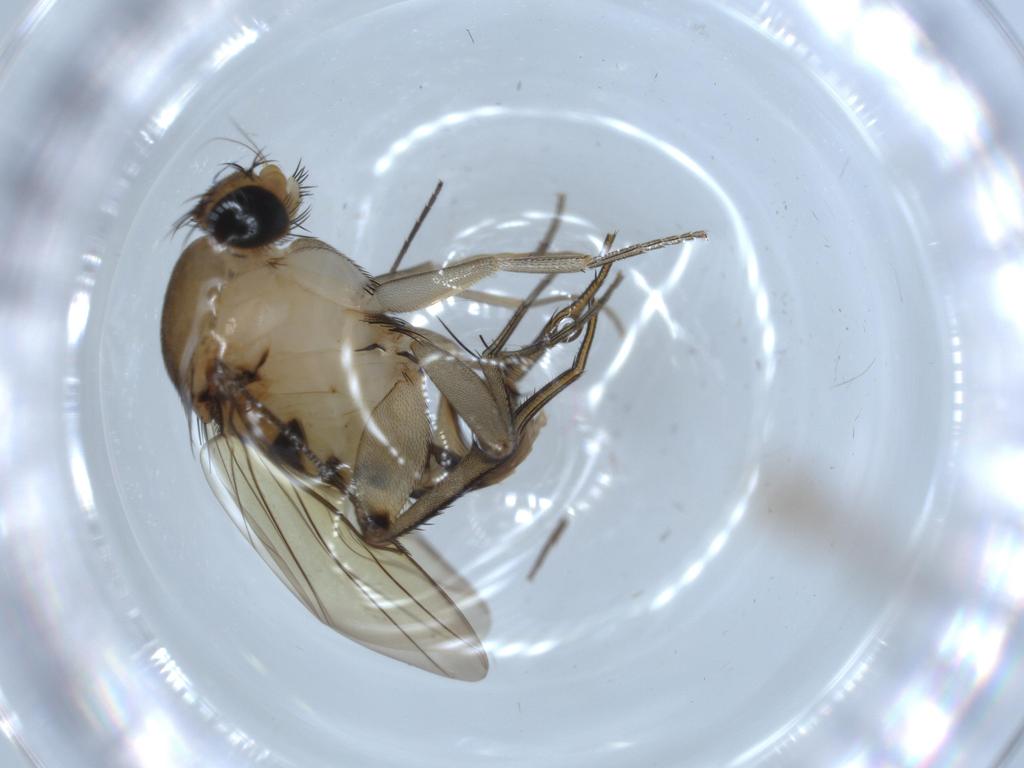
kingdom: Animalia
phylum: Arthropoda
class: Insecta
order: Diptera
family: Phoridae
